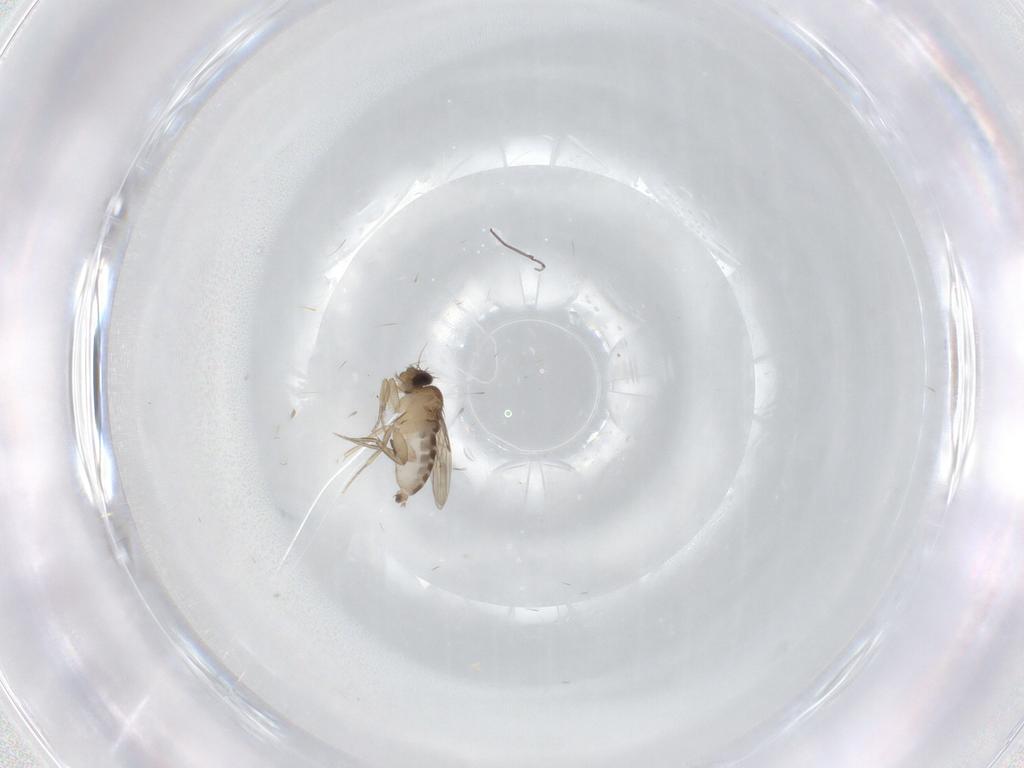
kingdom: Animalia
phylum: Arthropoda
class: Insecta
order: Diptera
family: Phoridae
